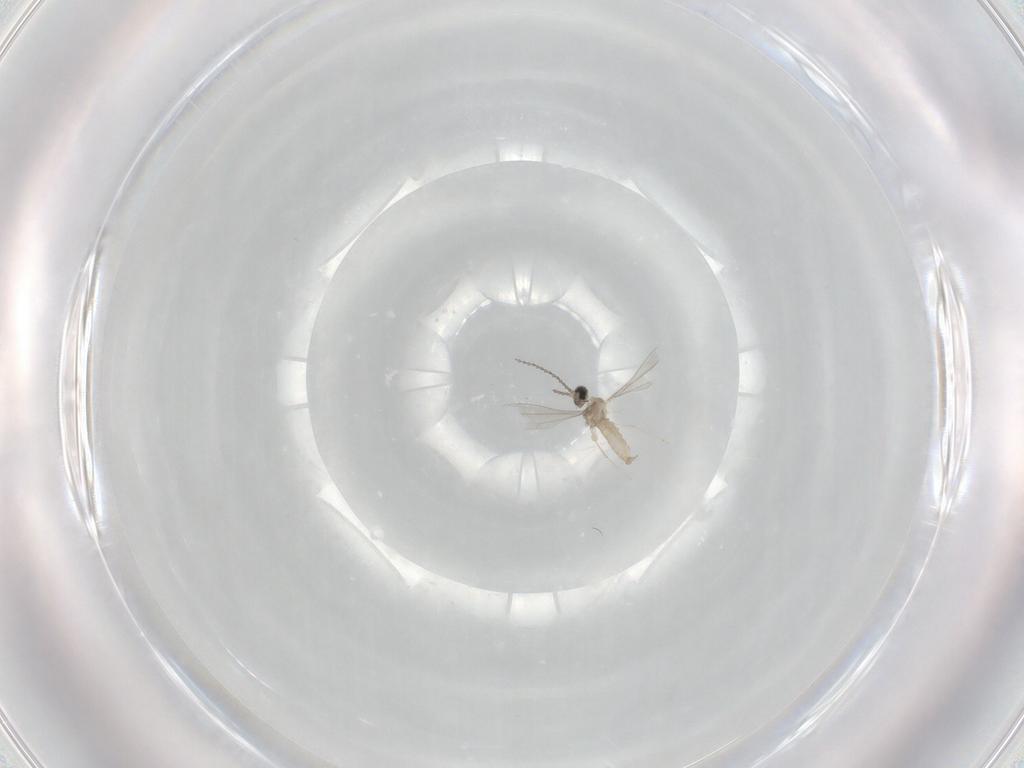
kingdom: Animalia
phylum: Arthropoda
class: Insecta
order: Diptera
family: Cecidomyiidae
